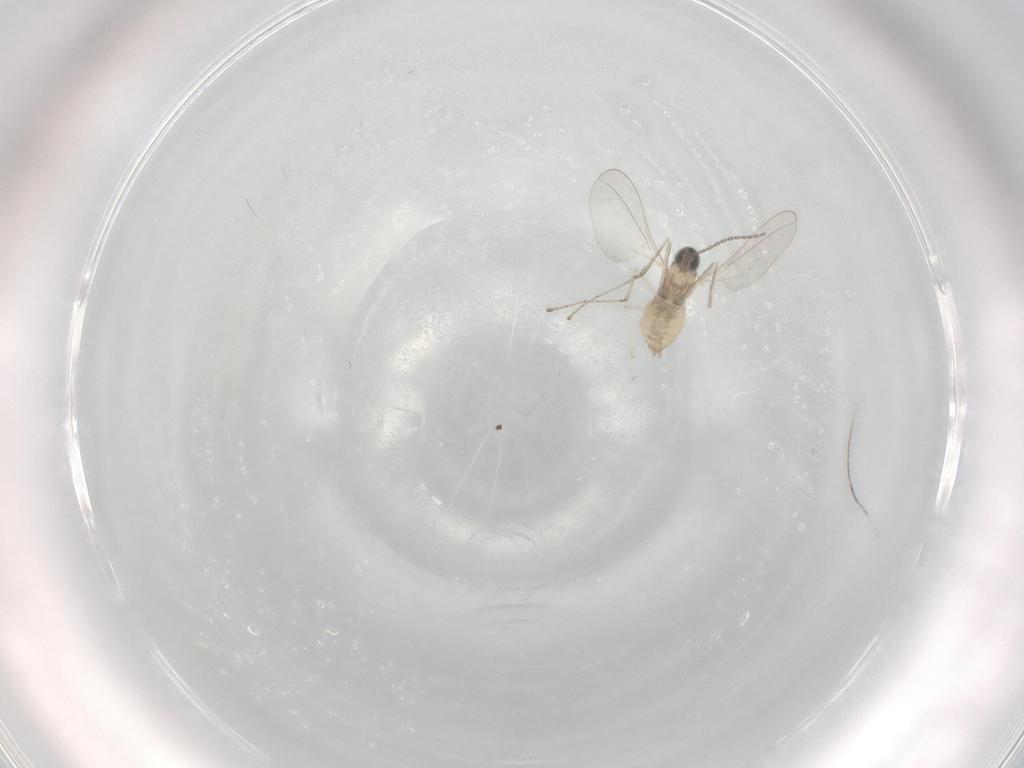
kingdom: Animalia
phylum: Arthropoda
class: Insecta
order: Diptera
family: Cecidomyiidae
